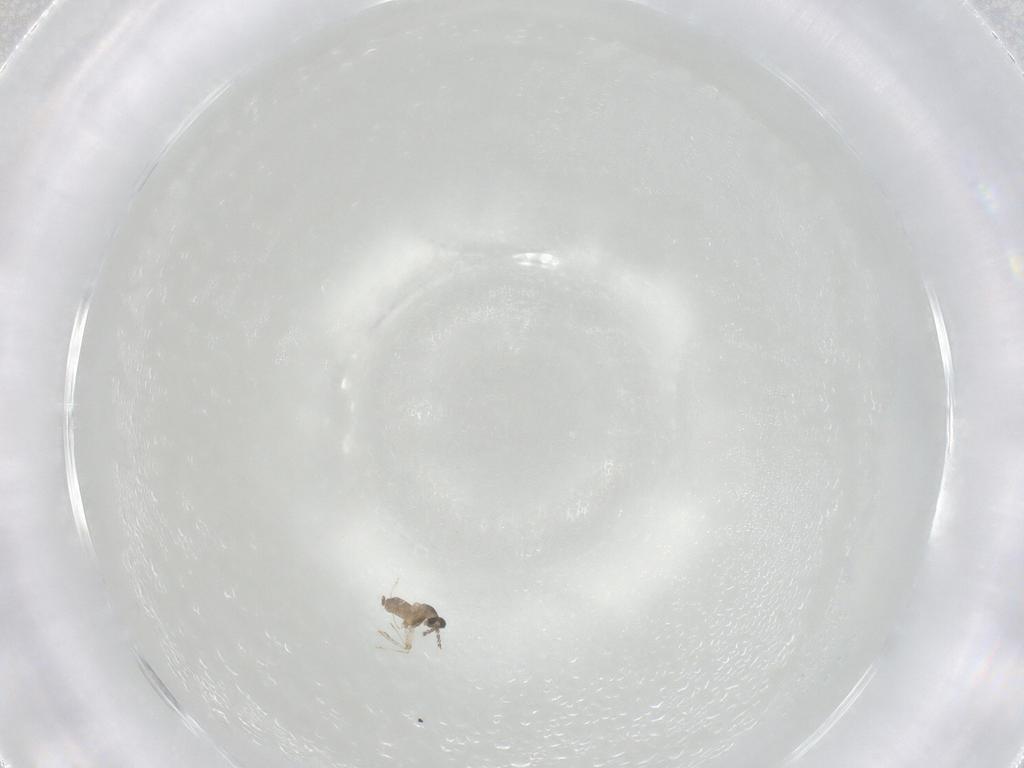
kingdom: Animalia
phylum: Arthropoda
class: Insecta
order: Diptera
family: Cecidomyiidae
